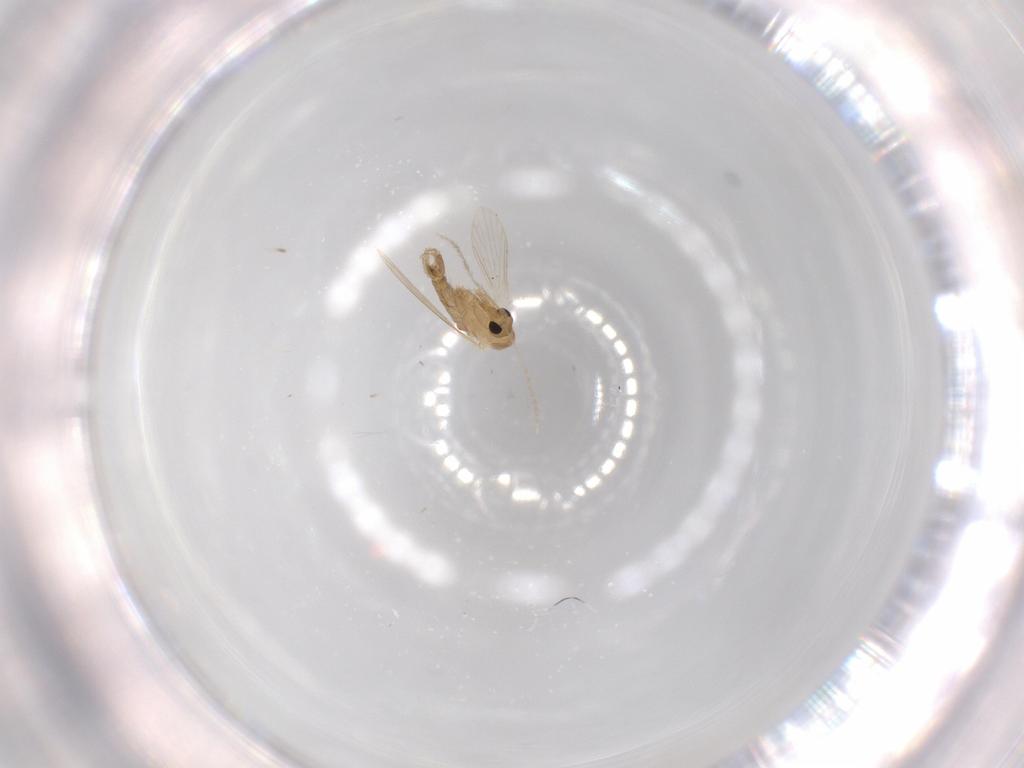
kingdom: Animalia
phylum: Arthropoda
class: Insecta
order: Diptera
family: Psychodidae
